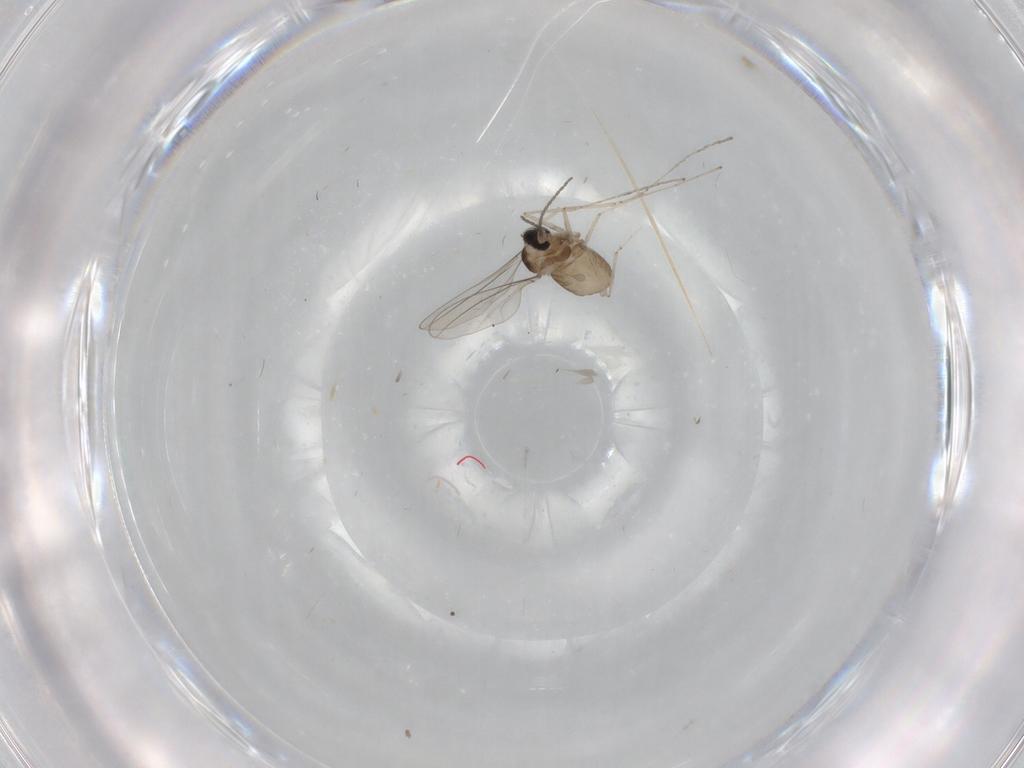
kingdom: Animalia
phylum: Arthropoda
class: Insecta
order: Diptera
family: Cecidomyiidae
